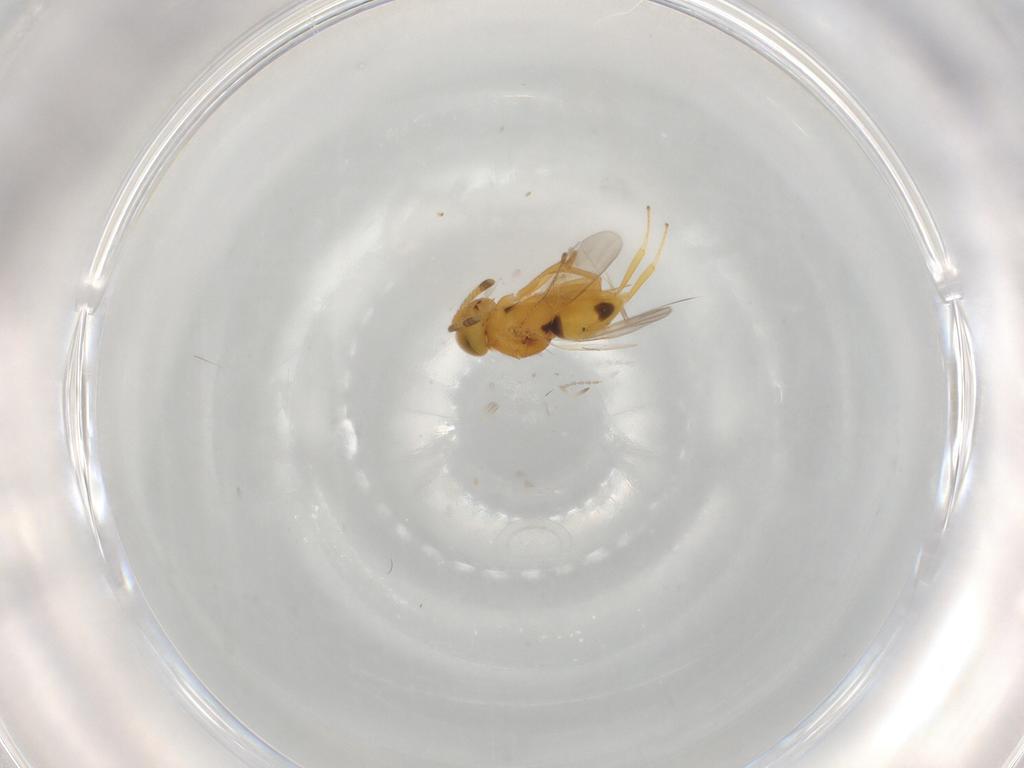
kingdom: Animalia
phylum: Arthropoda
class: Insecta
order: Hymenoptera
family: Encyrtidae
